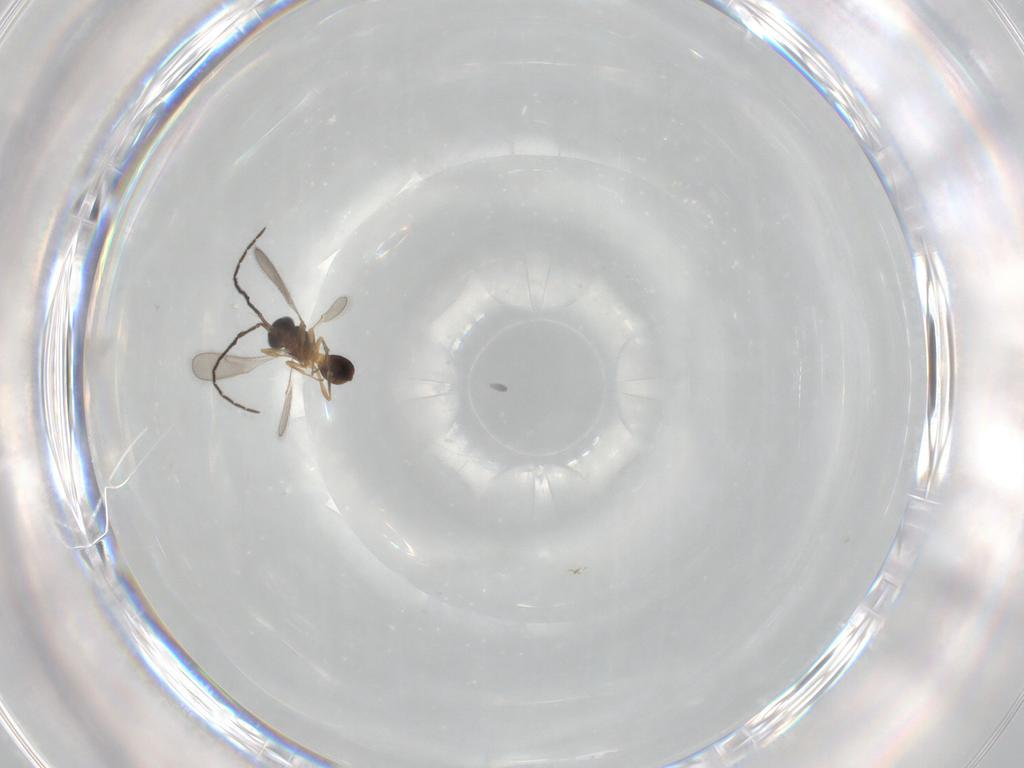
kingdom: Animalia
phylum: Arthropoda
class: Insecta
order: Hymenoptera
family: Scelionidae
